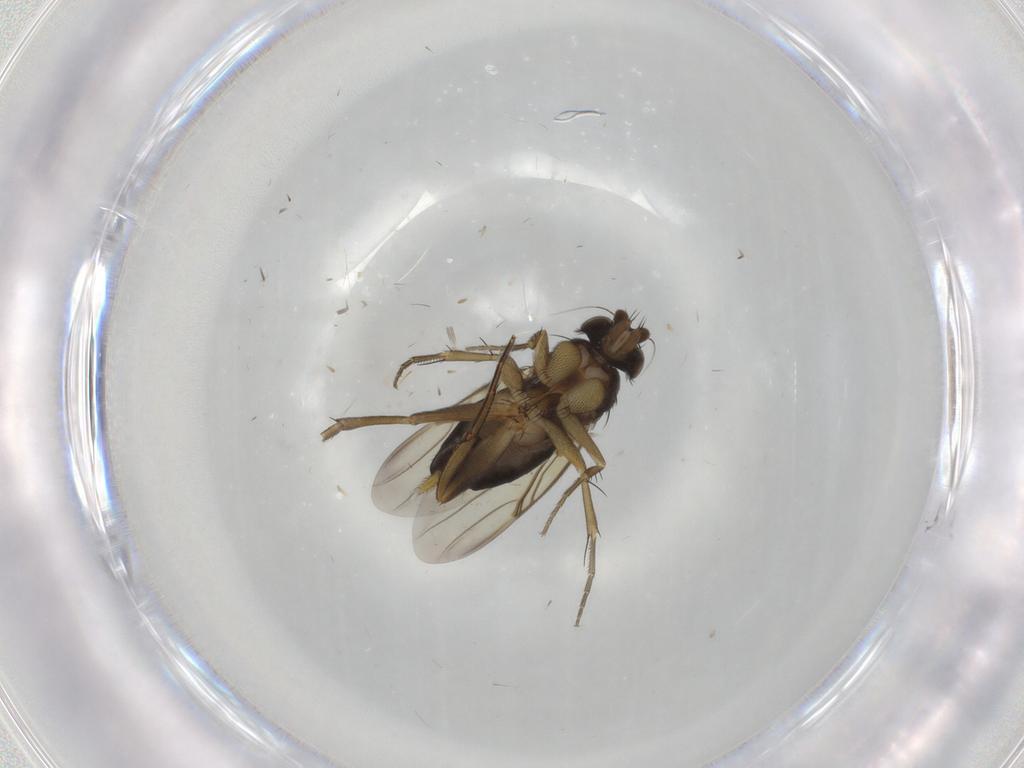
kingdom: Animalia
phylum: Arthropoda
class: Insecta
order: Diptera
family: Phoridae
